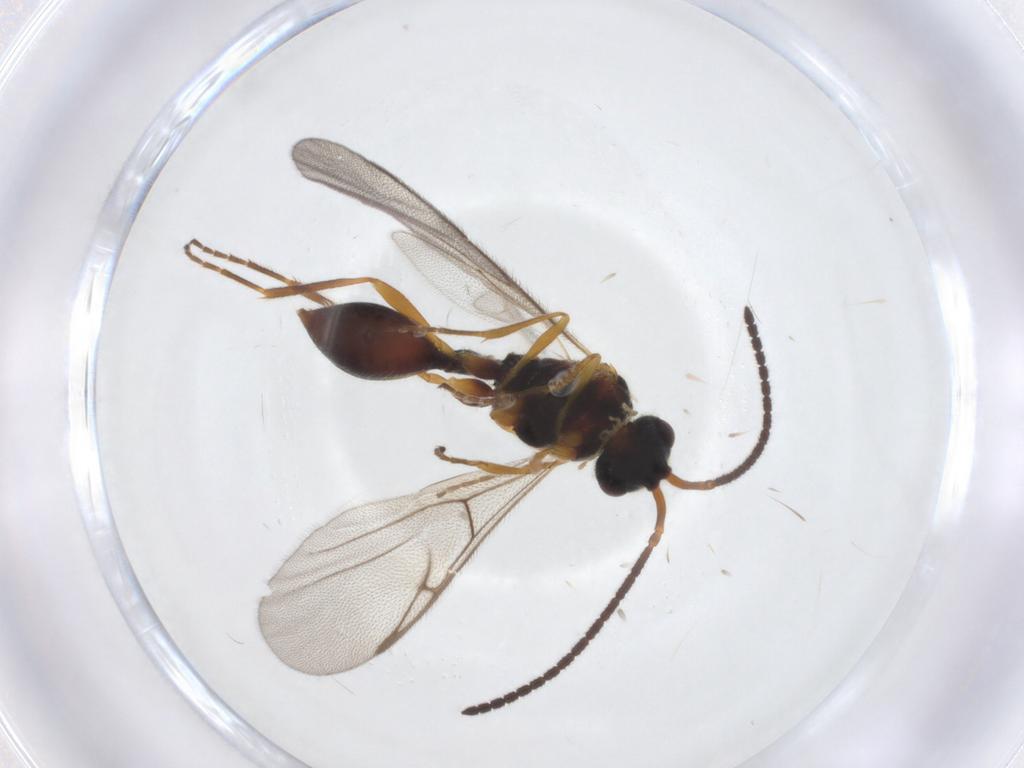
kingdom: Animalia
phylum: Arthropoda
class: Insecta
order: Hymenoptera
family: Diapriidae
